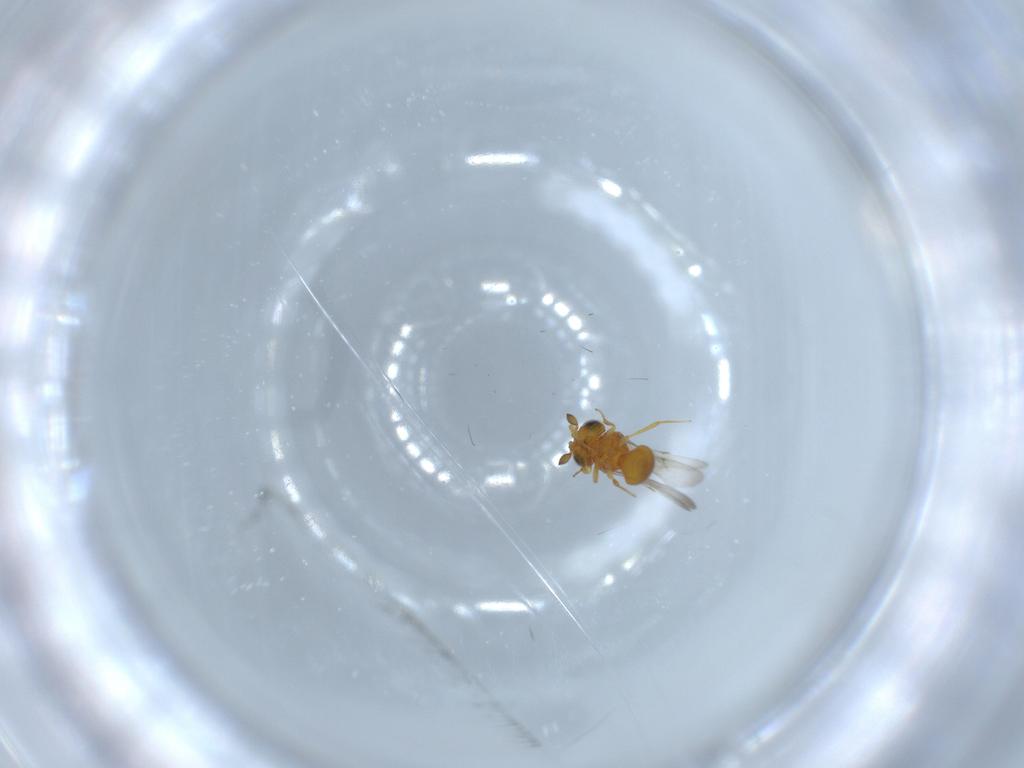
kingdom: Animalia
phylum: Arthropoda
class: Insecta
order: Hymenoptera
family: Scelionidae
